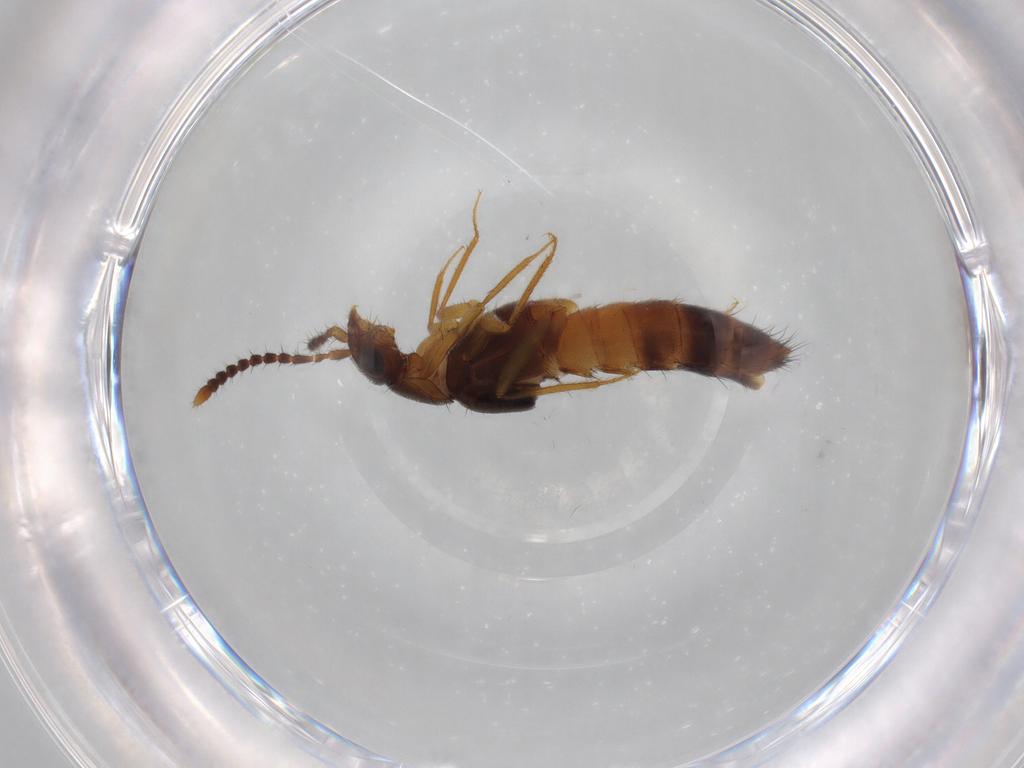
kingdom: Animalia
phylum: Arthropoda
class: Insecta
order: Coleoptera
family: Staphylinidae
